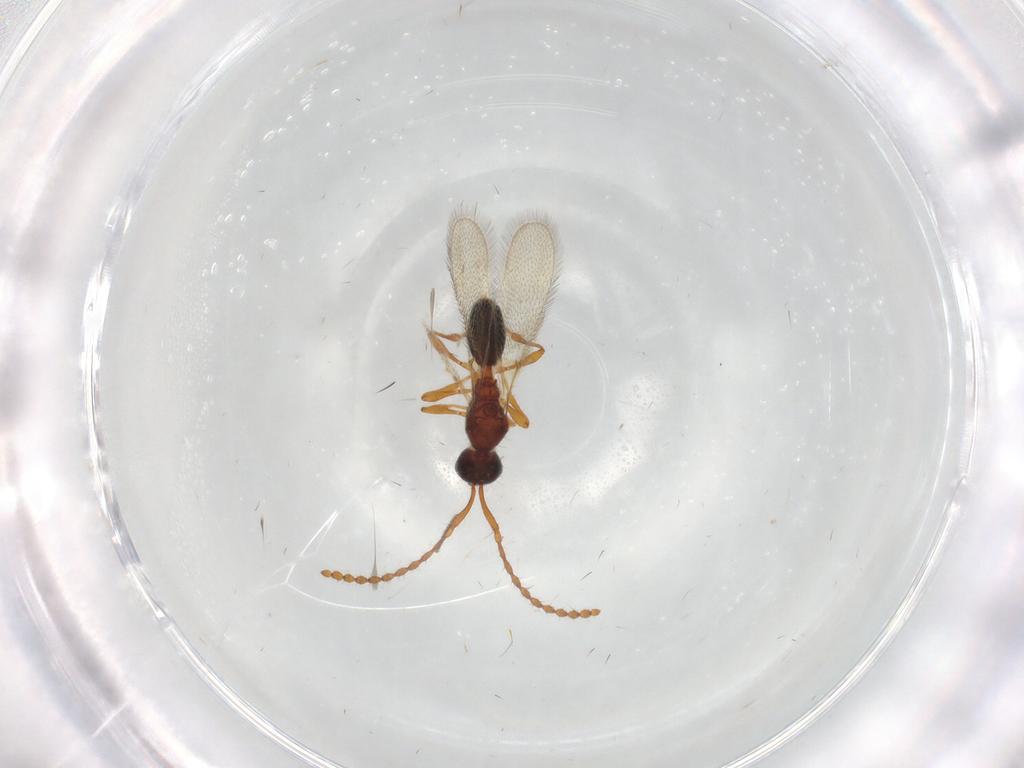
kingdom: Animalia
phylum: Arthropoda
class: Insecta
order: Hymenoptera
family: Diapriidae
